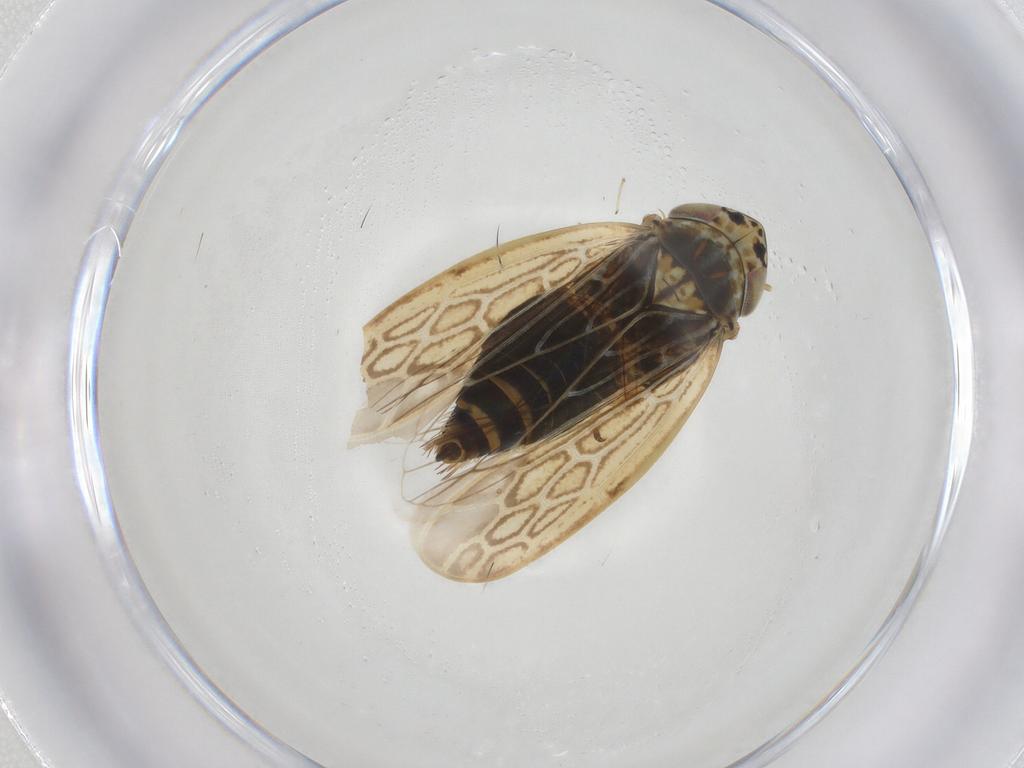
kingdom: Animalia
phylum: Arthropoda
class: Insecta
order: Hemiptera
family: Cicadellidae
